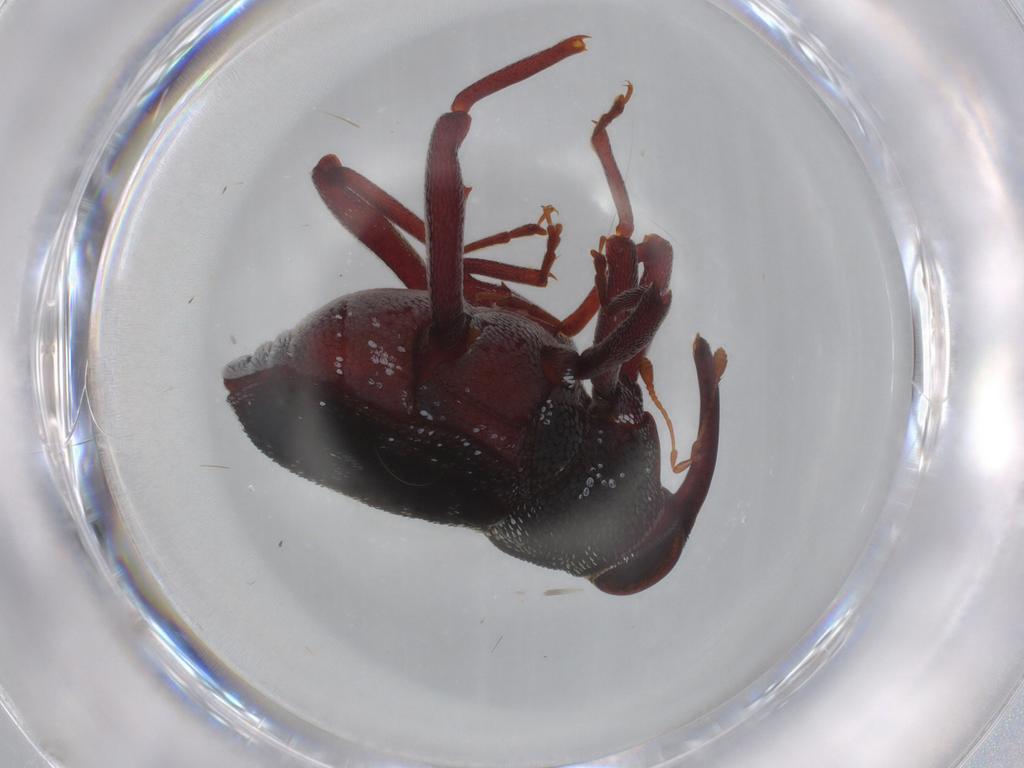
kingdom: Animalia
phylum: Arthropoda
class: Insecta
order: Coleoptera
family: Curculionidae
